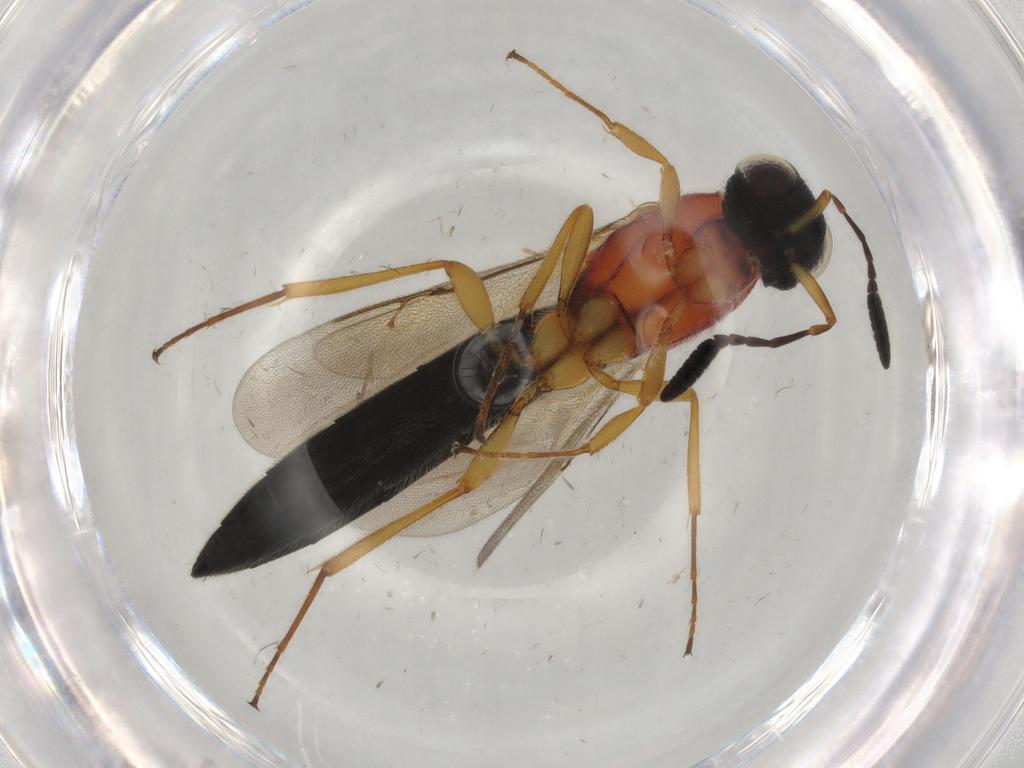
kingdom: Animalia
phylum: Arthropoda
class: Insecta
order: Hymenoptera
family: Scelionidae
